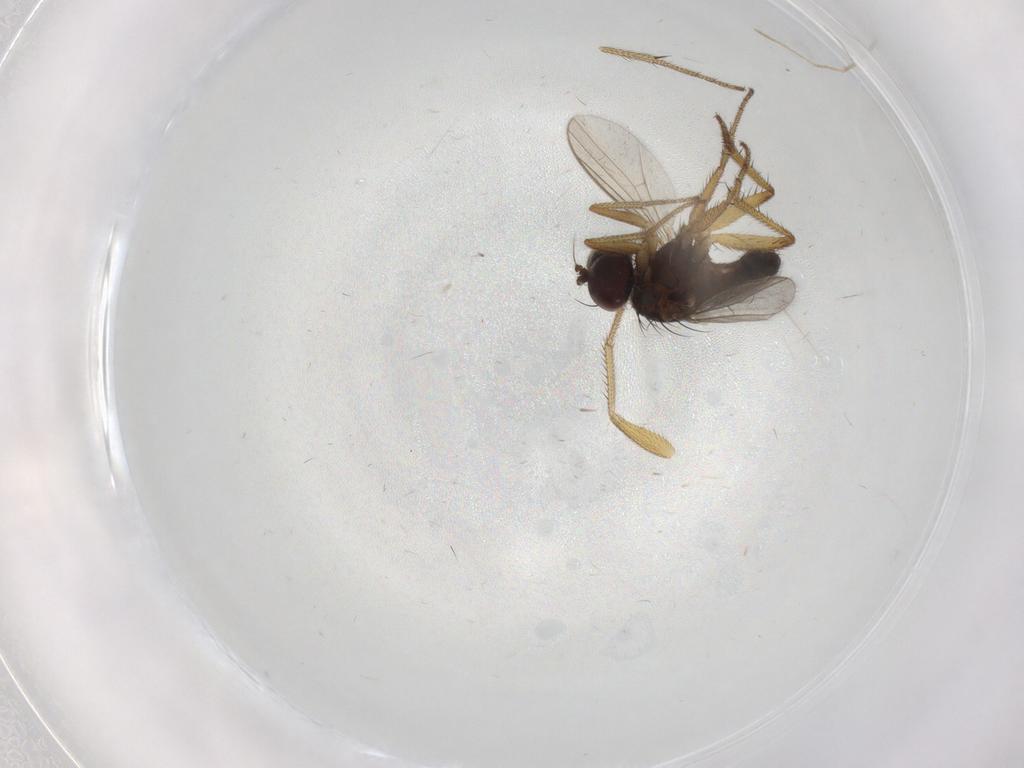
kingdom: Animalia
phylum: Arthropoda
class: Insecta
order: Diptera
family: Chironomidae
